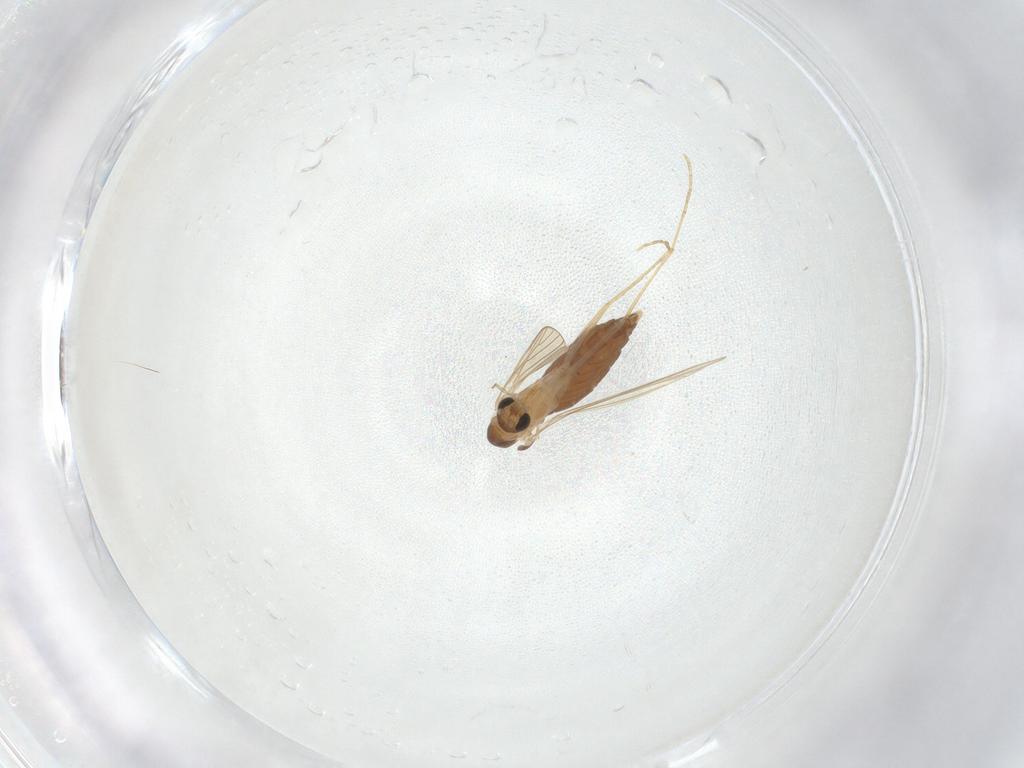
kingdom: Animalia
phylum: Arthropoda
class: Insecta
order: Diptera
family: Psychodidae
